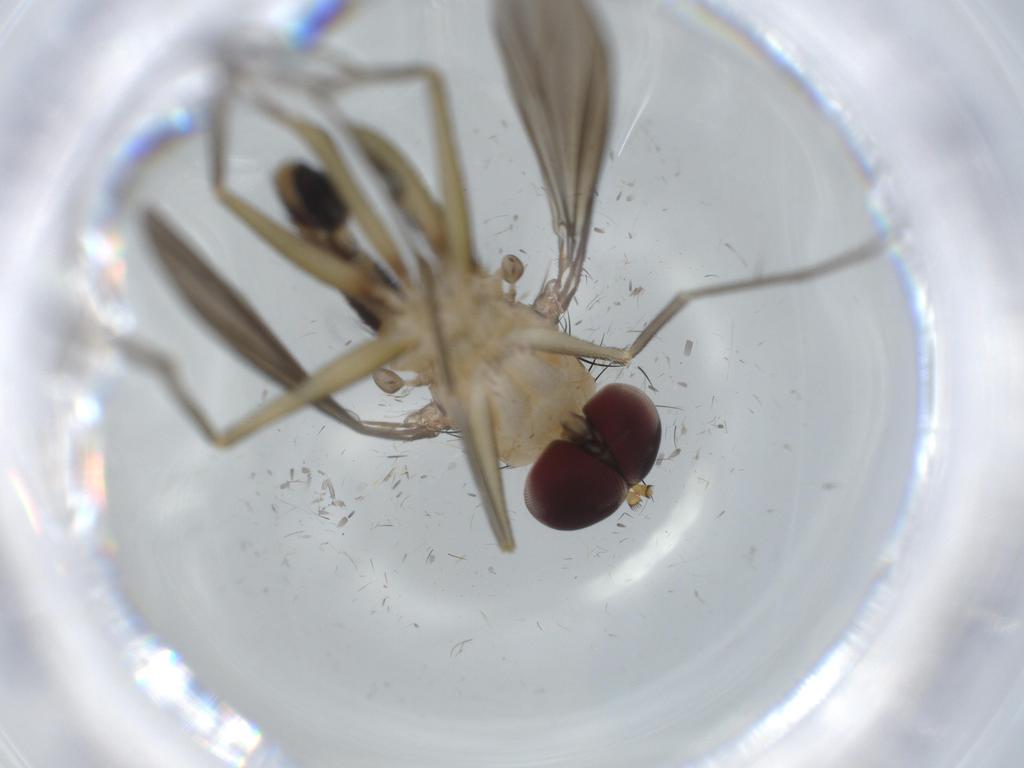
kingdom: Animalia
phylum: Arthropoda
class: Insecta
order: Diptera
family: Dolichopodidae
